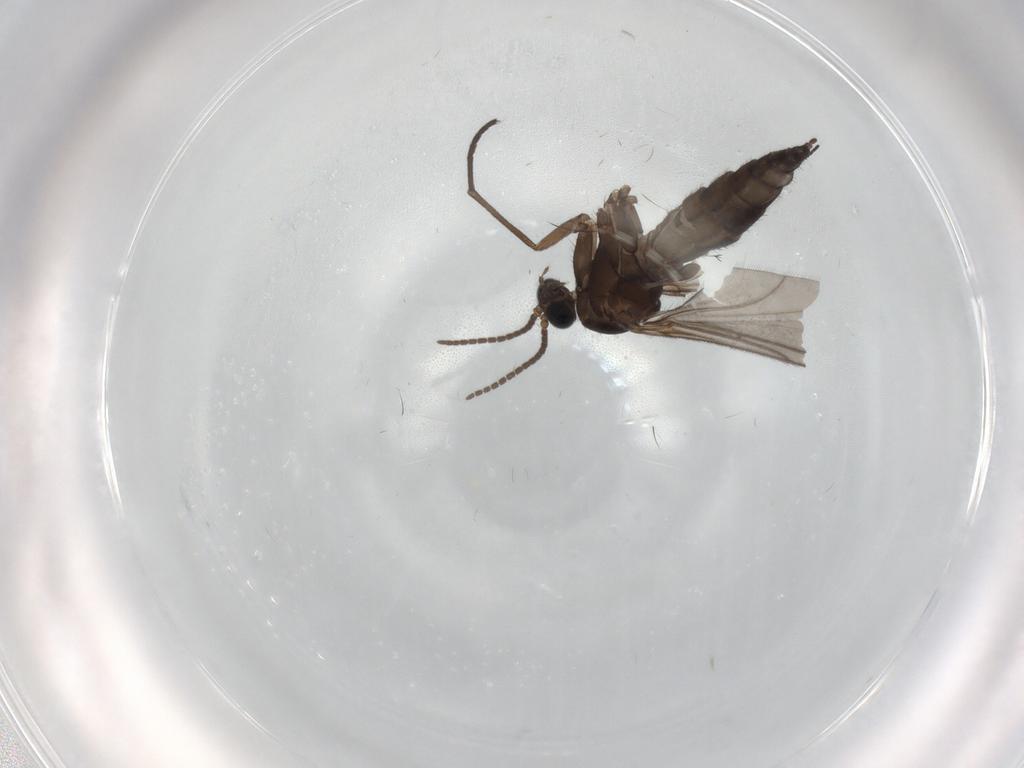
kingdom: Animalia
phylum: Arthropoda
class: Insecta
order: Diptera
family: Sciaridae
